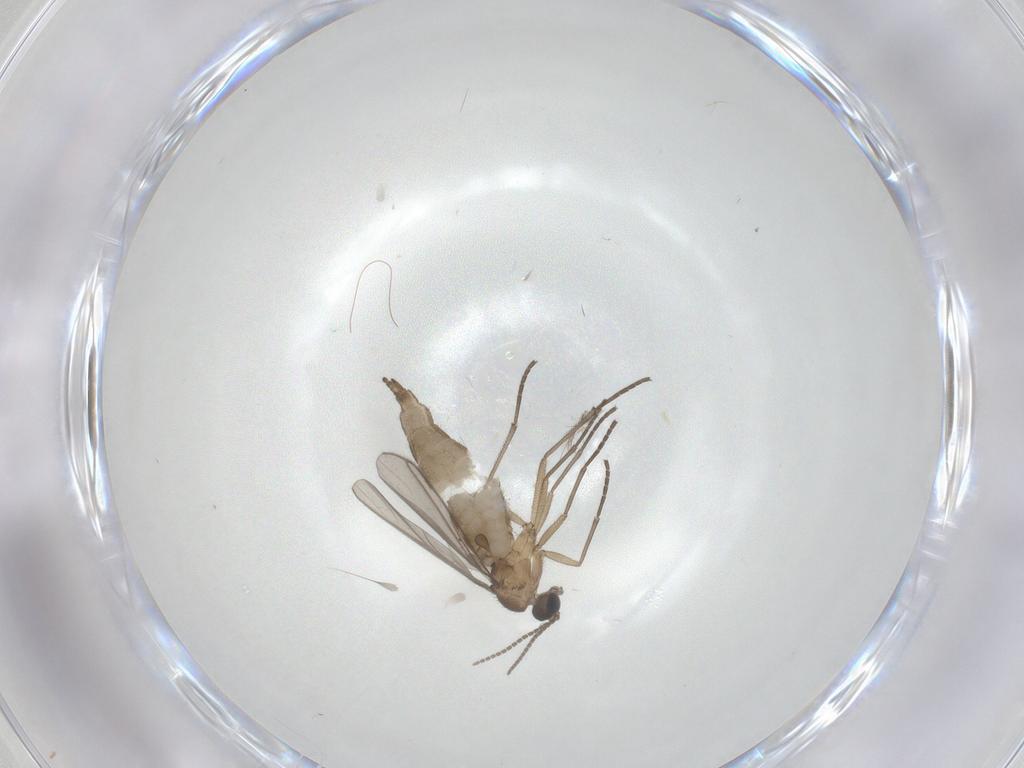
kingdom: Animalia
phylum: Arthropoda
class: Insecta
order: Diptera
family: Sciaridae
